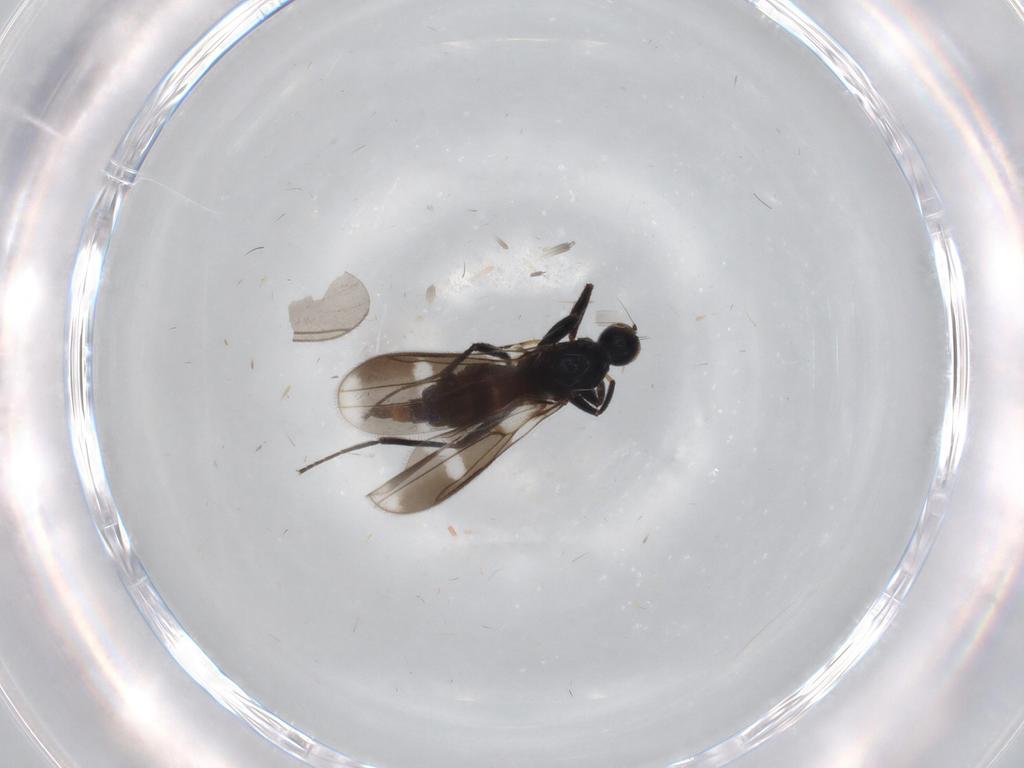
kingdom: Animalia
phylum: Arthropoda
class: Insecta
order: Diptera
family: Hybotidae
